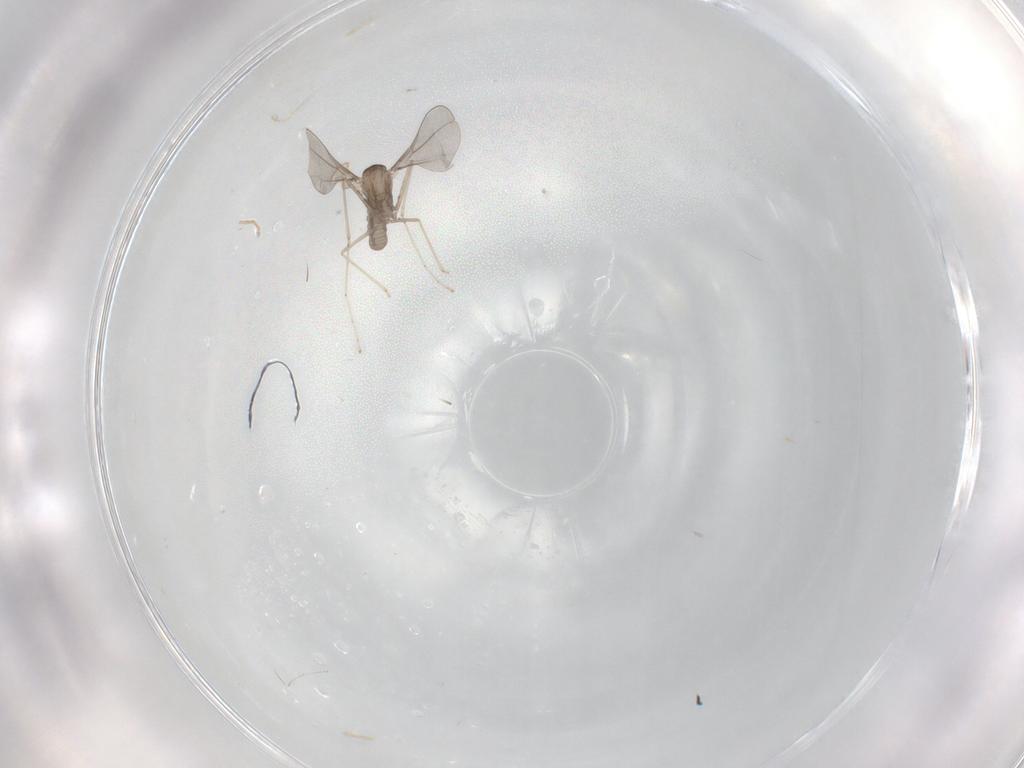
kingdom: Animalia
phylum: Arthropoda
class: Insecta
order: Diptera
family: Cecidomyiidae
